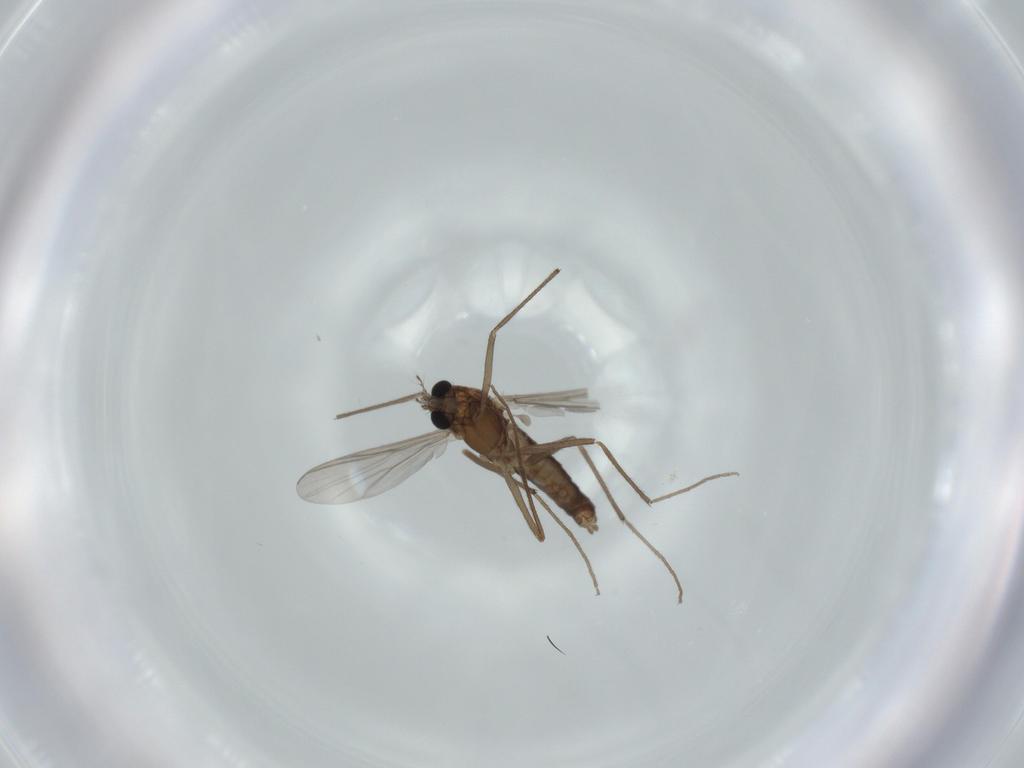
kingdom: Animalia
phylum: Arthropoda
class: Insecta
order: Diptera
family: Chironomidae
